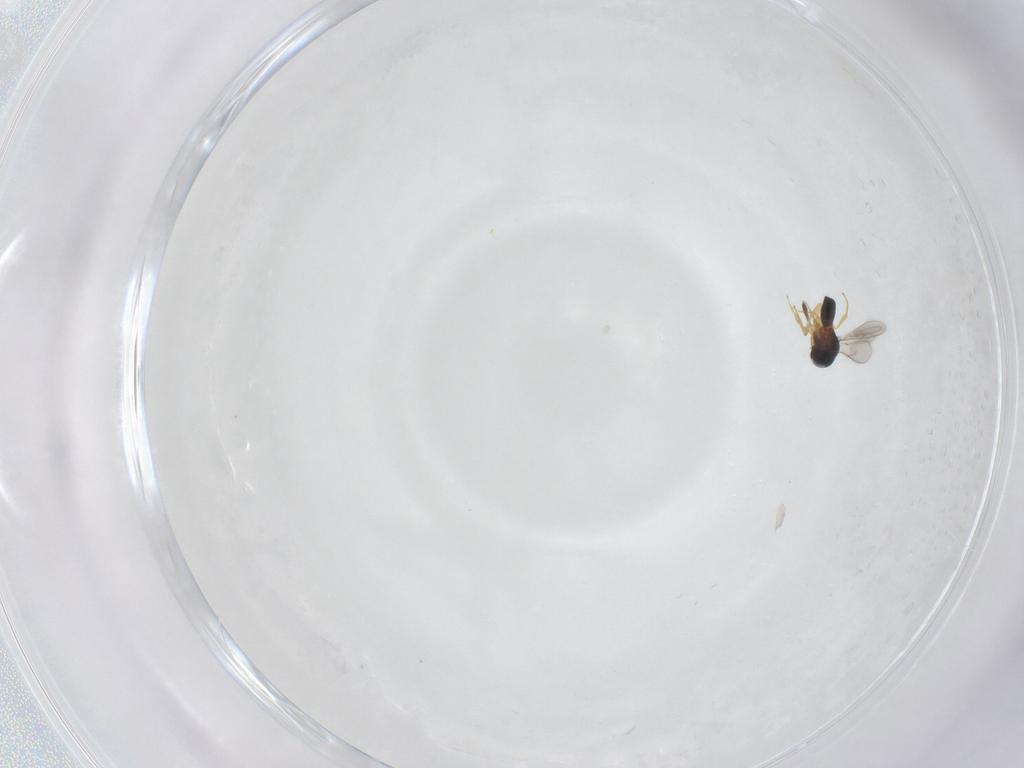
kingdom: Animalia
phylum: Arthropoda
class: Insecta
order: Hymenoptera
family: Scelionidae
